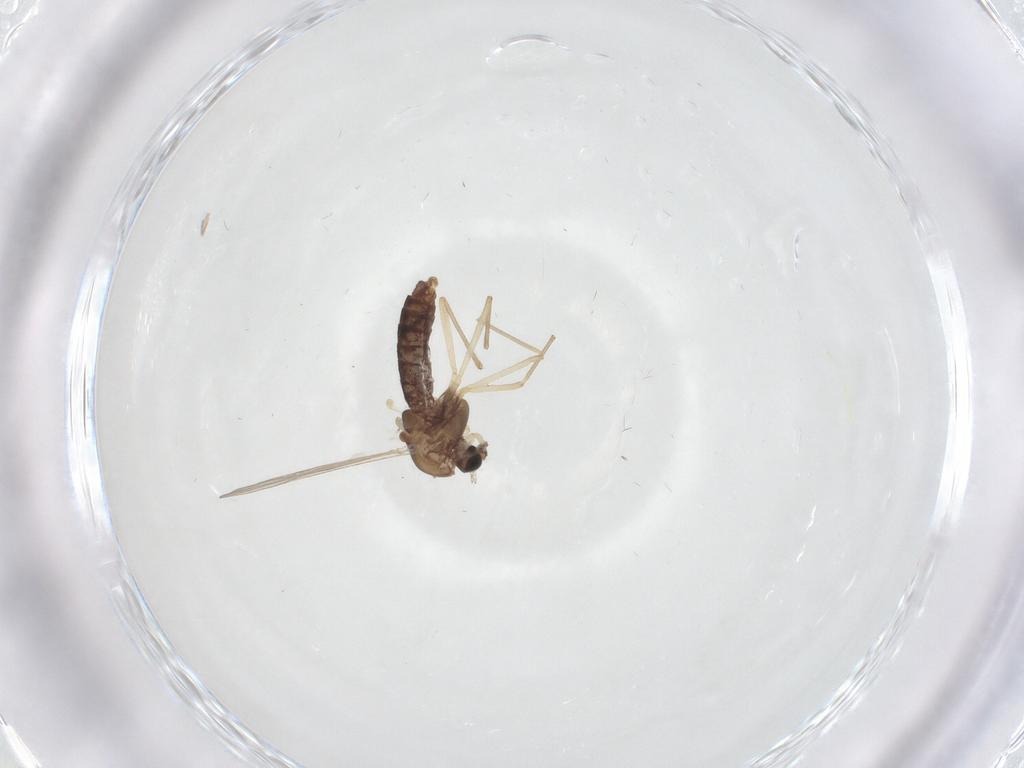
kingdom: Animalia
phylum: Arthropoda
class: Insecta
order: Diptera
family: Chironomidae
